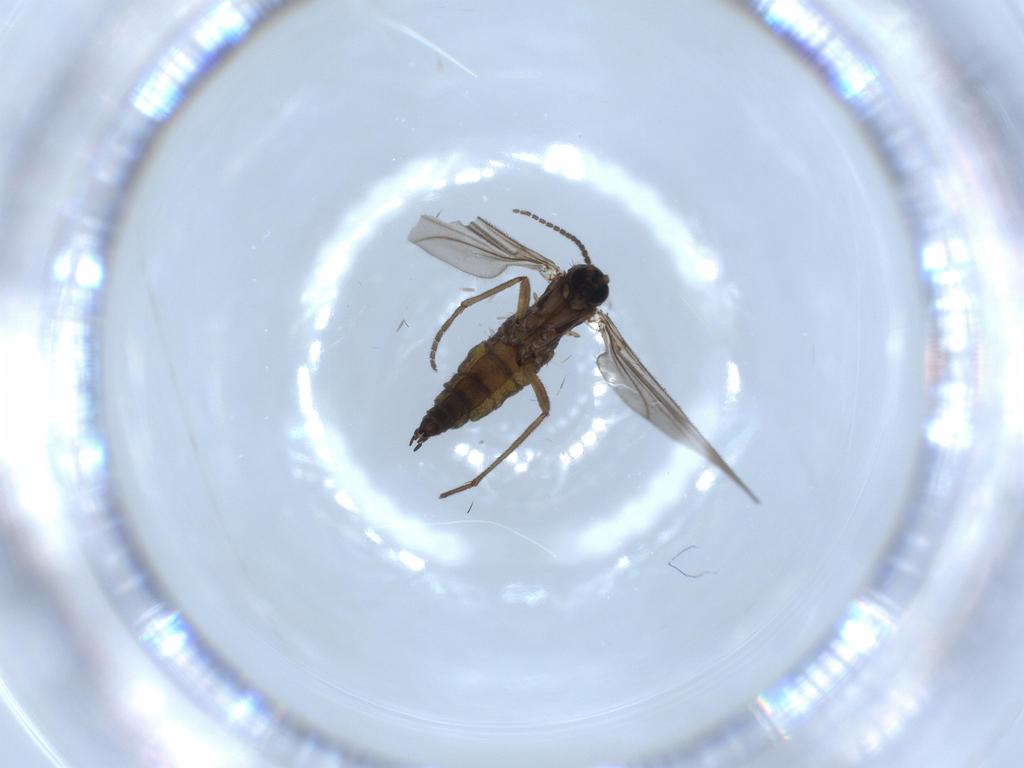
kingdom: Animalia
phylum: Arthropoda
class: Insecta
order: Diptera
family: Sciaridae
